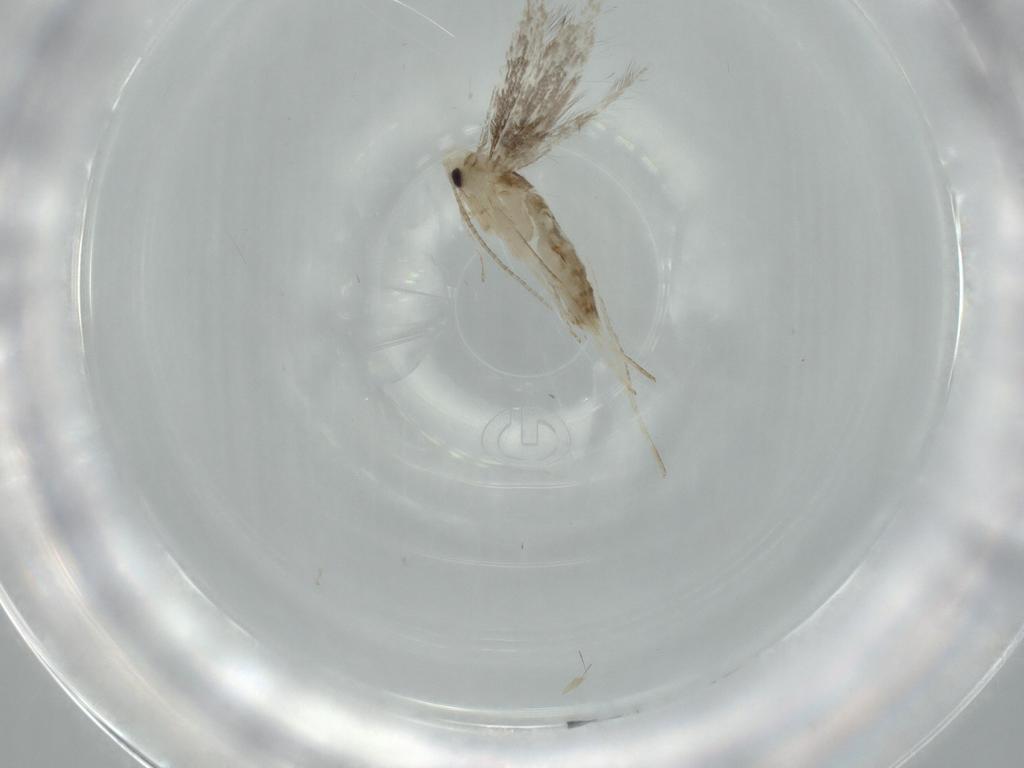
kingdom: Animalia
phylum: Arthropoda
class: Insecta
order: Lepidoptera
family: Gracillariidae
